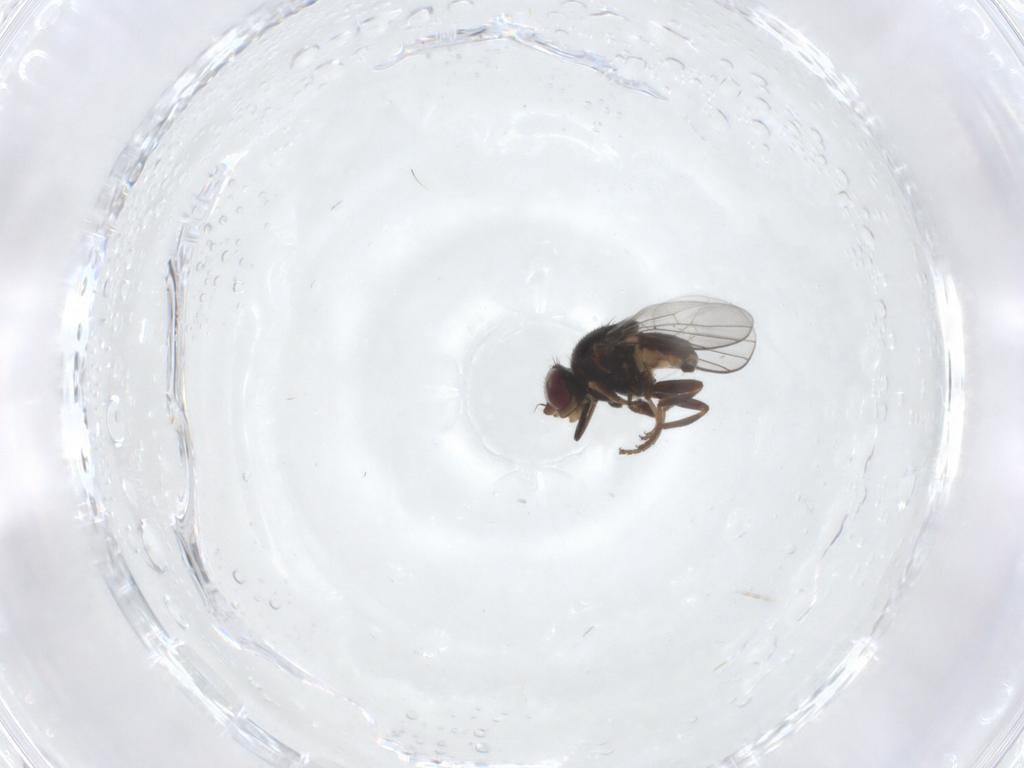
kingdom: Animalia
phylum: Arthropoda
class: Insecta
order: Diptera
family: Chloropidae
